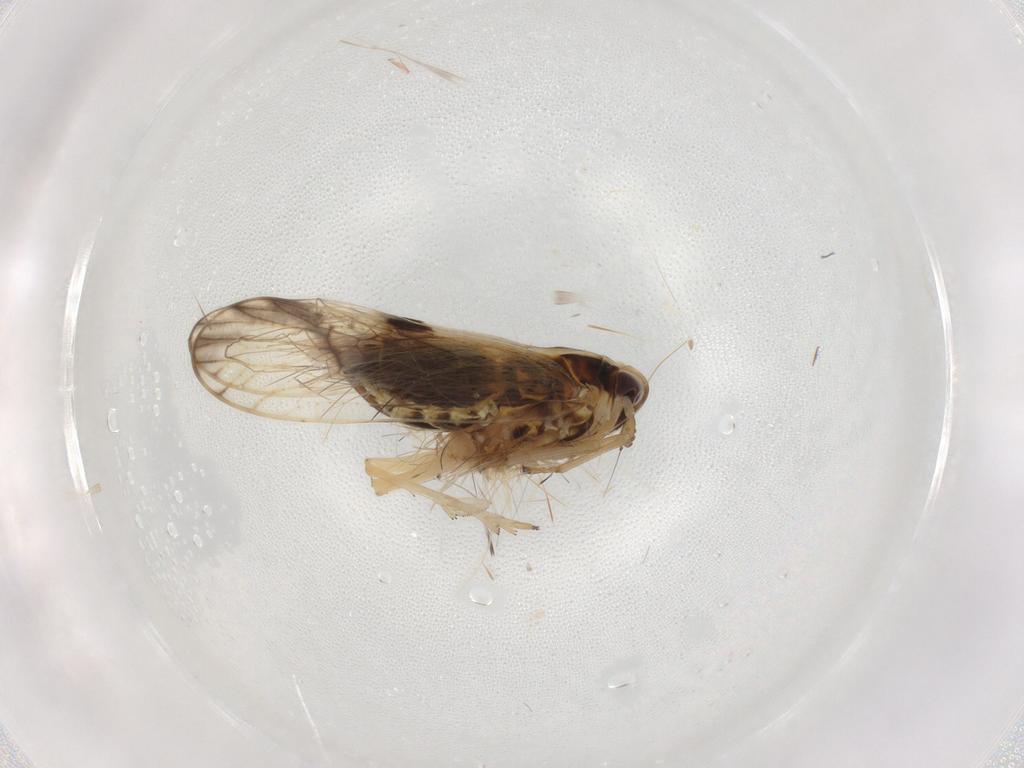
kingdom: Animalia
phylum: Arthropoda
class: Insecta
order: Hemiptera
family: Delphacidae
